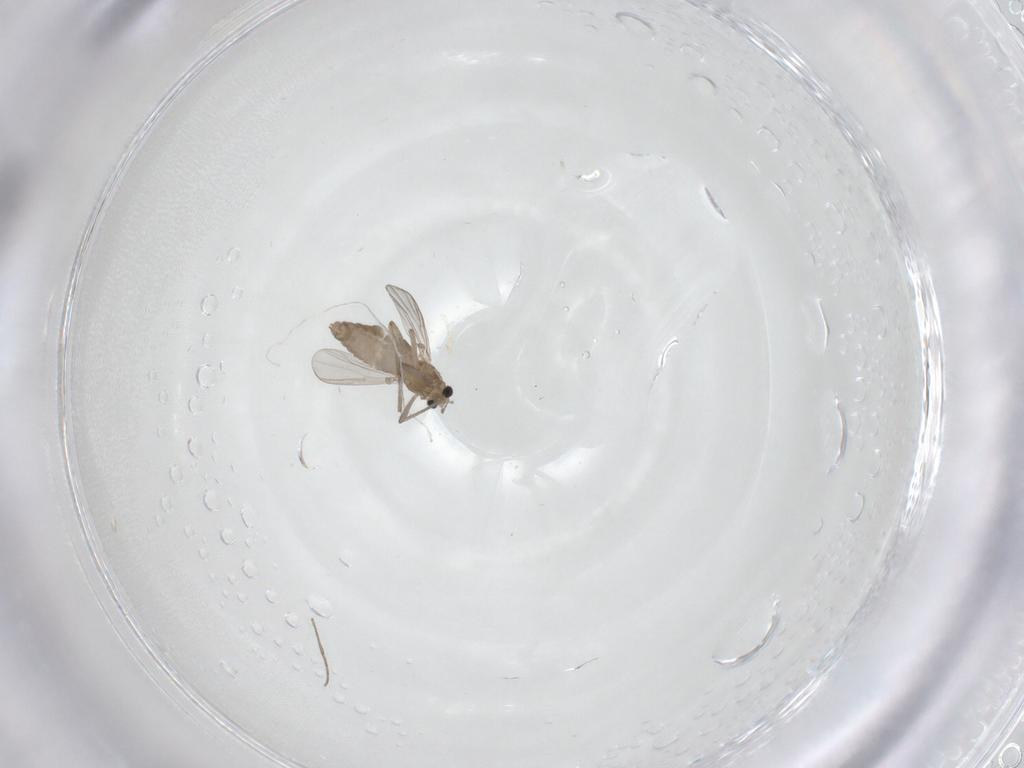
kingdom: Animalia
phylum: Arthropoda
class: Insecta
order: Diptera
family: Chironomidae
